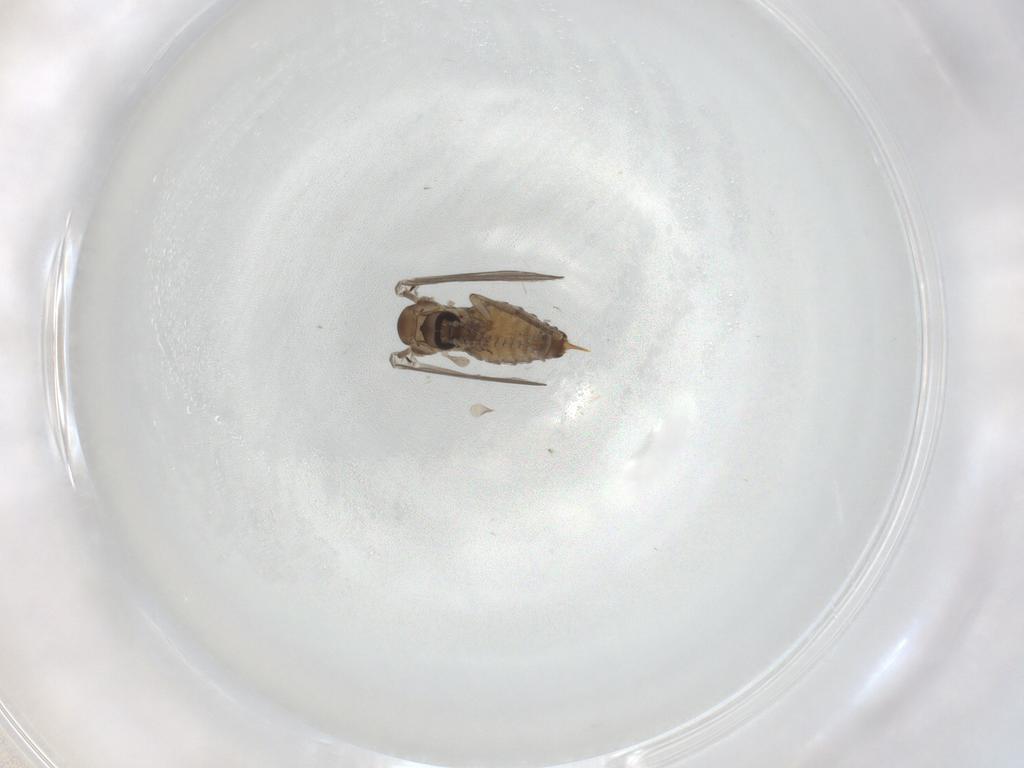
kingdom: Animalia
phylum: Arthropoda
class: Insecta
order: Diptera
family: Psychodidae
